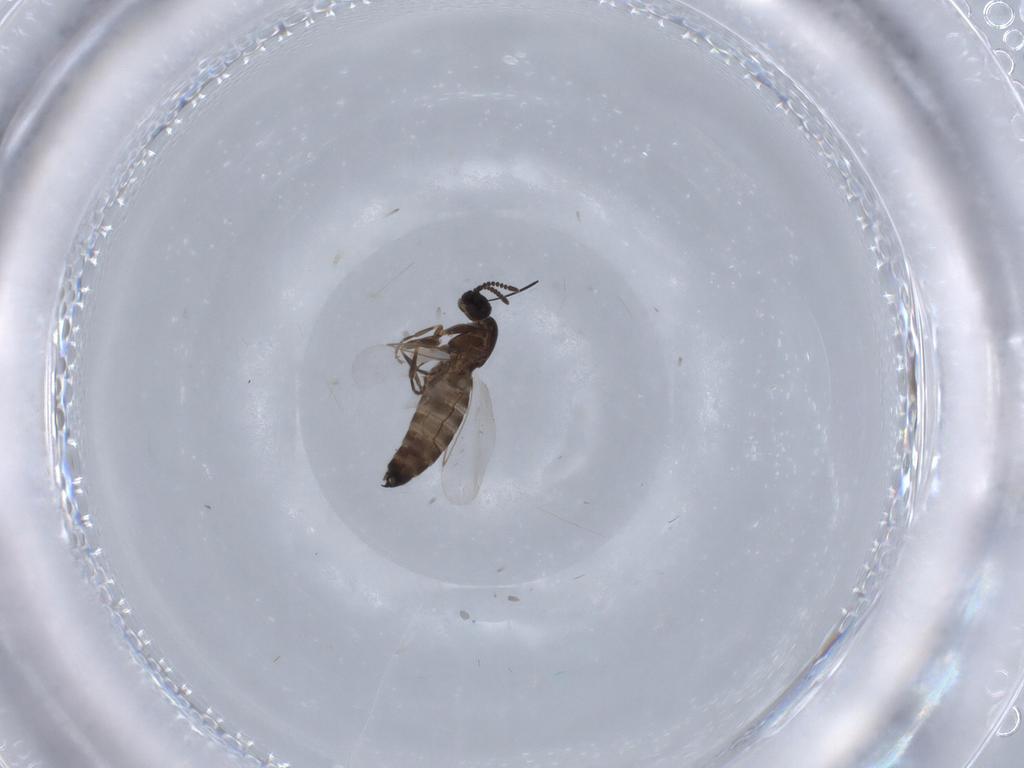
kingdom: Animalia
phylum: Arthropoda
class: Insecta
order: Diptera
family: Scatopsidae
